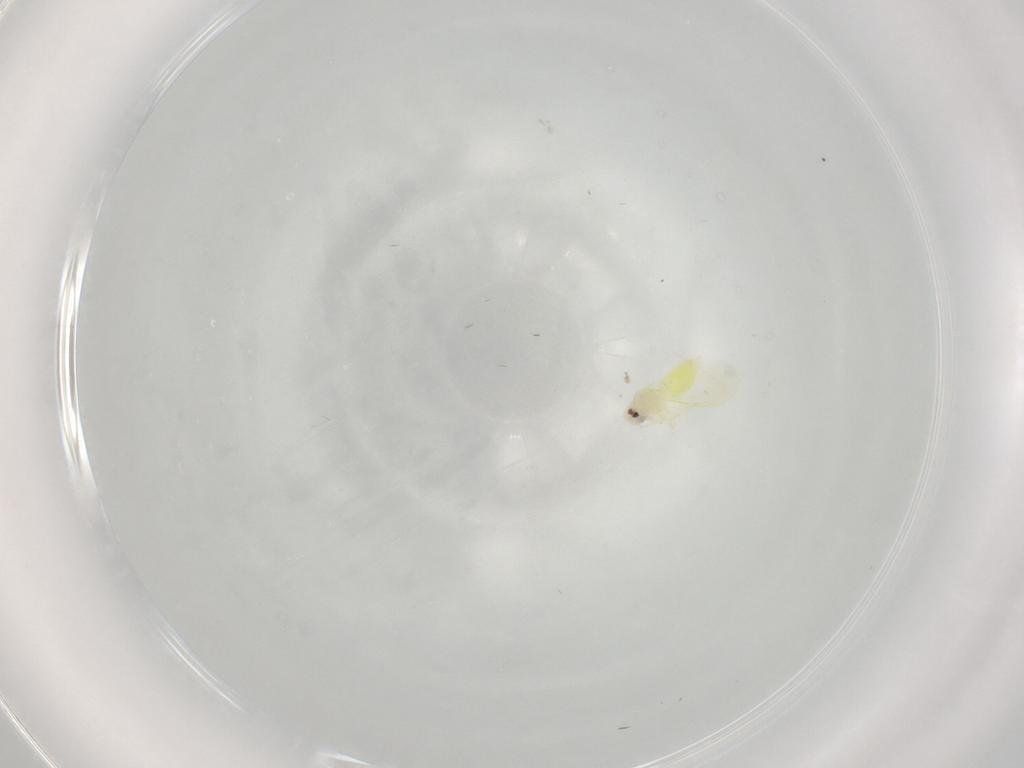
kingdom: Animalia
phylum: Arthropoda
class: Insecta
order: Hemiptera
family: Aleyrodidae
